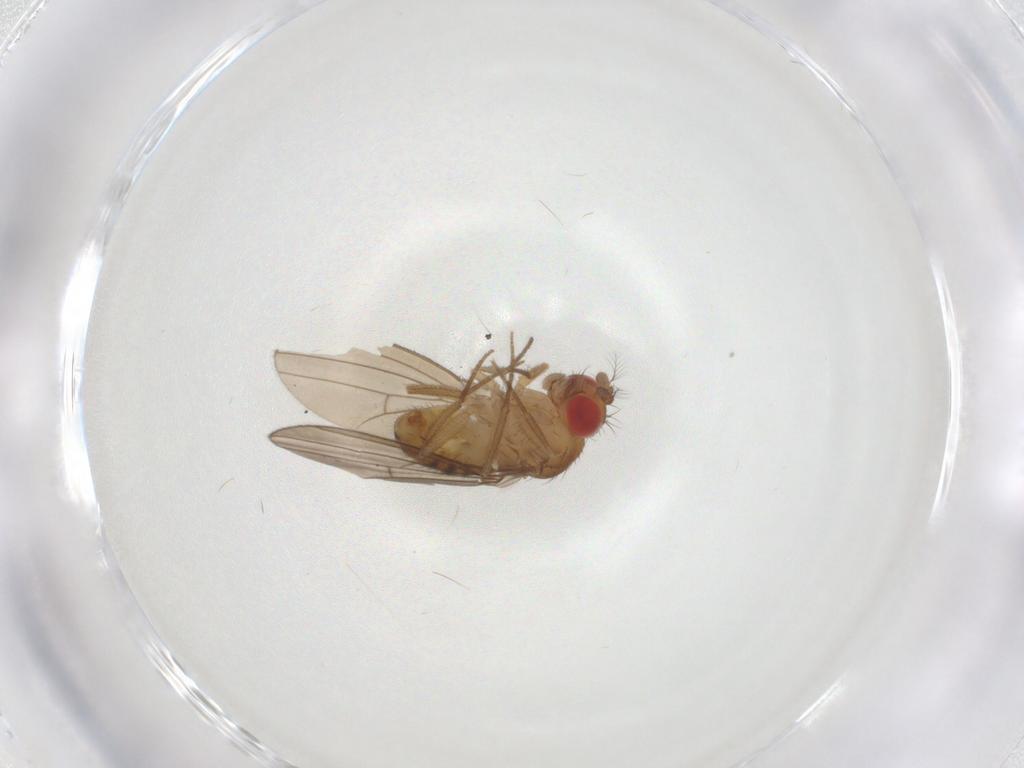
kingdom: Animalia
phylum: Arthropoda
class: Insecta
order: Diptera
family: Drosophilidae
